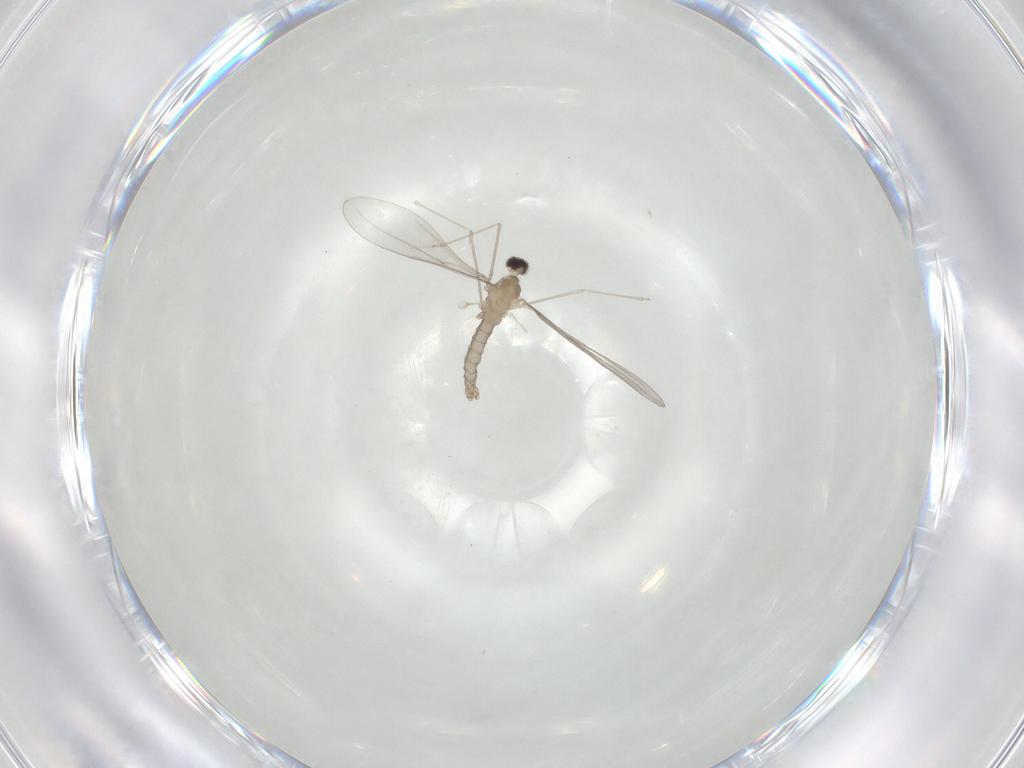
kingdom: Animalia
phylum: Arthropoda
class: Insecta
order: Diptera
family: Cecidomyiidae
